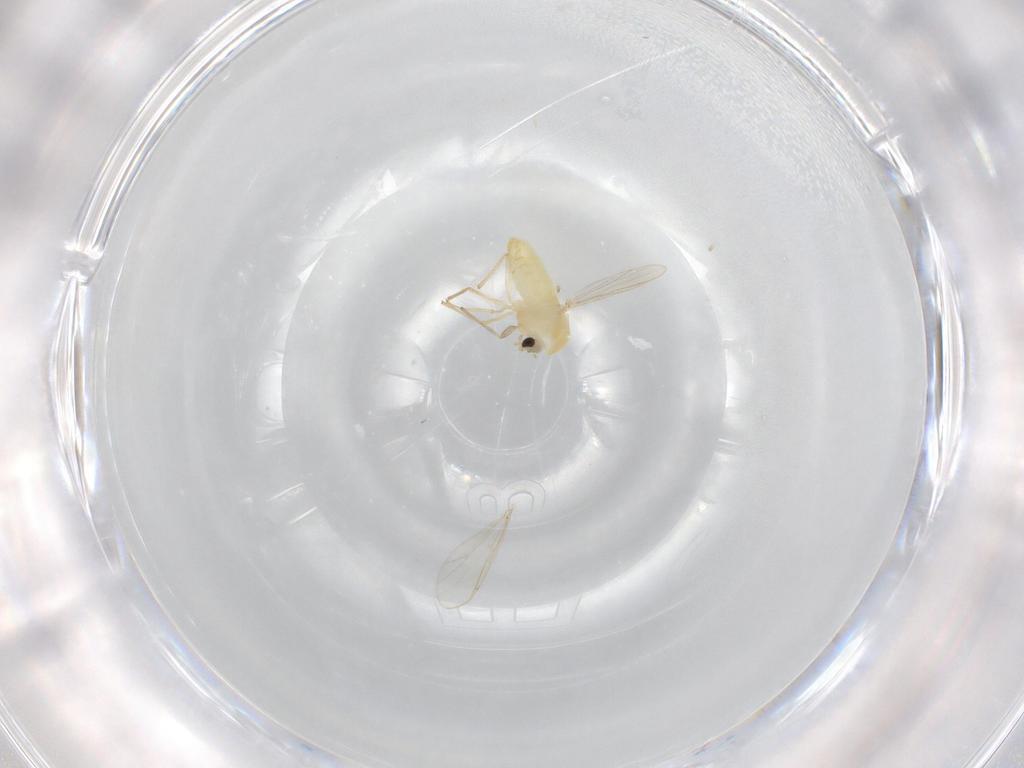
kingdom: Animalia
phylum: Arthropoda
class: Insecta
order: Diptera
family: Chironomidae
